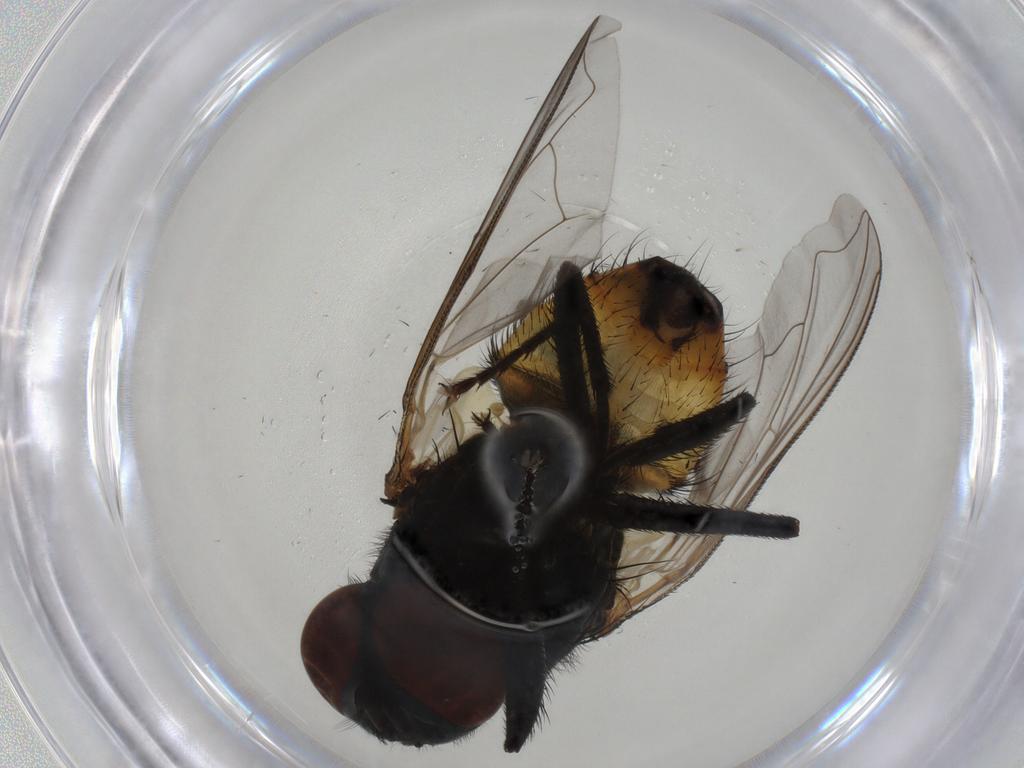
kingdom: Animalia
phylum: Arthropoda
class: Insecta
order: Diptera
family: Muscidae
